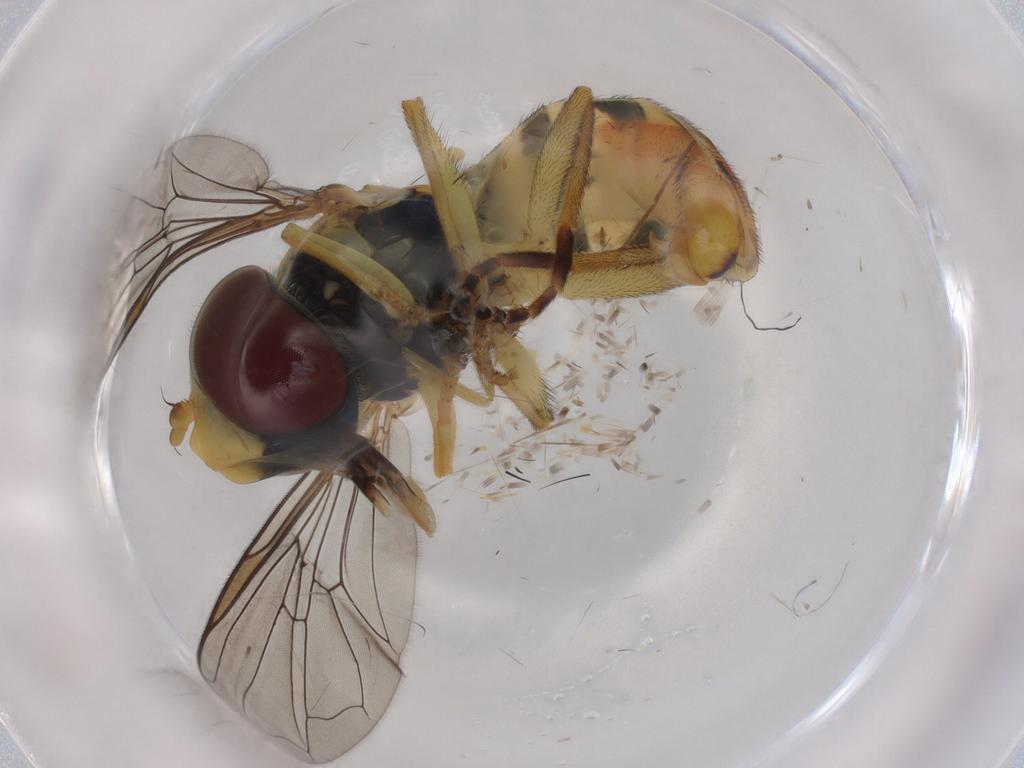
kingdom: Animalia
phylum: Arthropoda
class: Insecta
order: Diptera
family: Syrphidae
